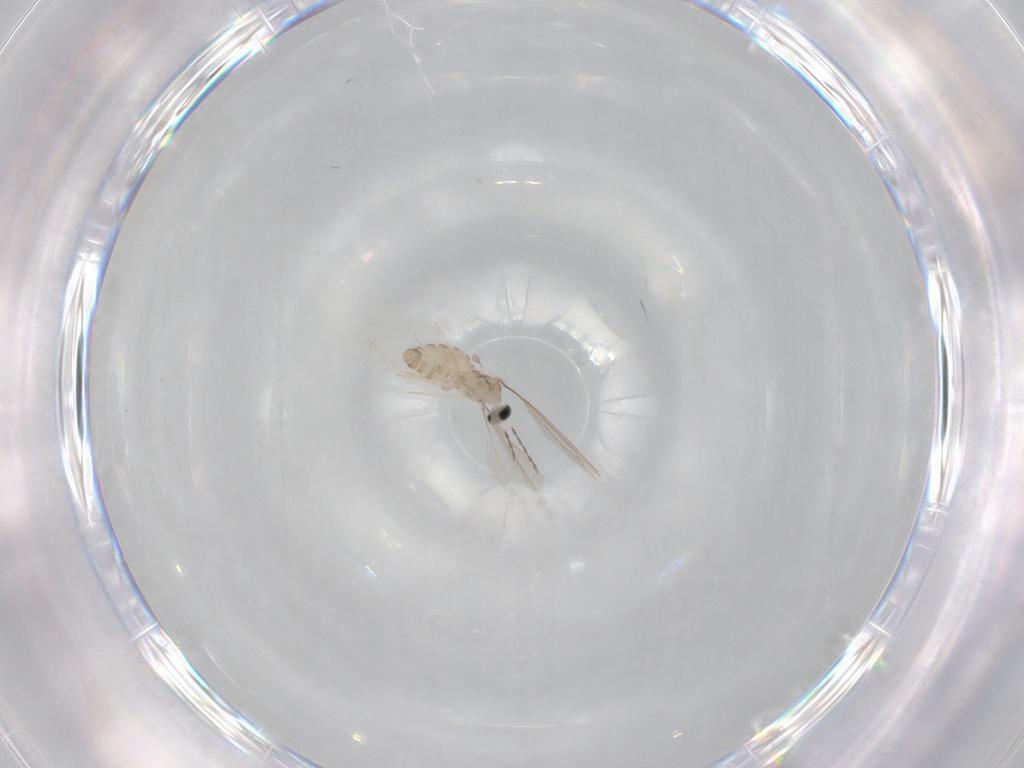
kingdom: Animalia
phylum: Arthropoda
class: Insecta
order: Diptera
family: Cecidomyiidae
